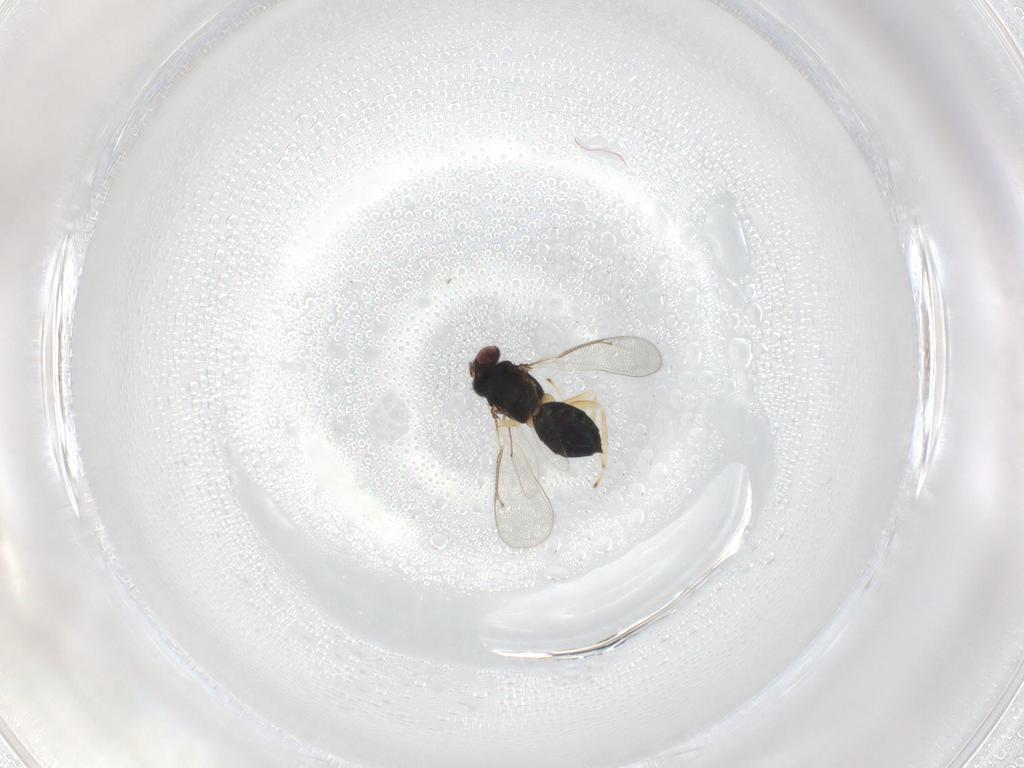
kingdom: Animalia
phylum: Arthropoda
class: Insecta
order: Hymenoptera
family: Eulophidae
